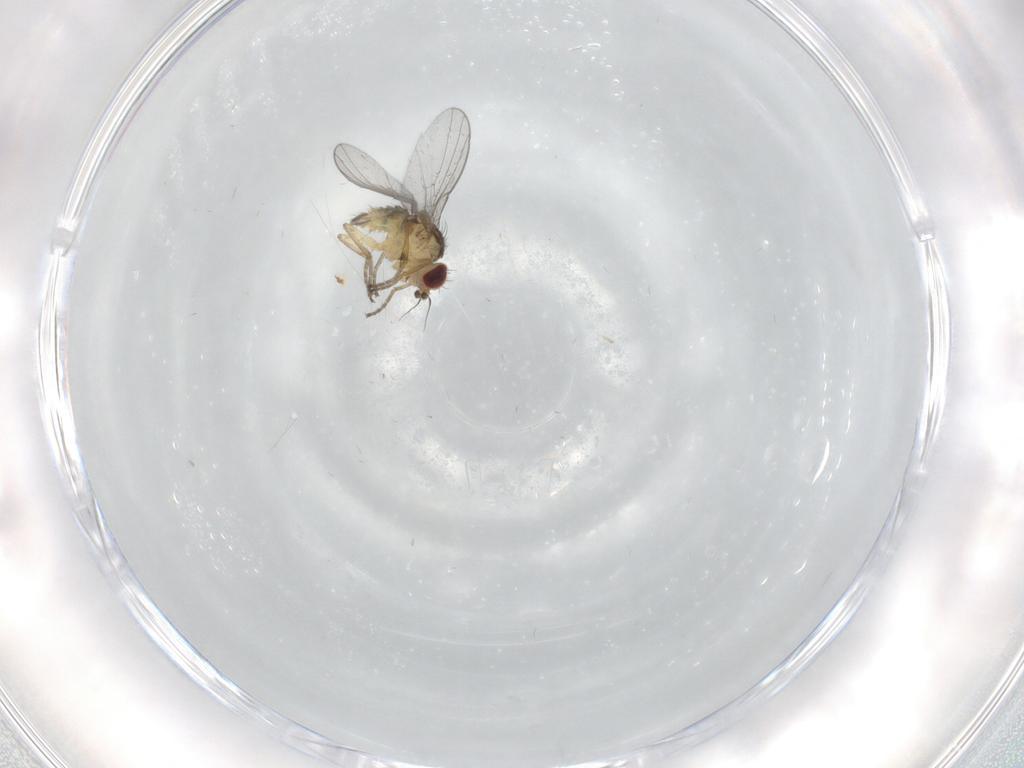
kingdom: Animalia
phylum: Arthropoda
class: Insecta
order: Diptera
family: Agromyzidae
